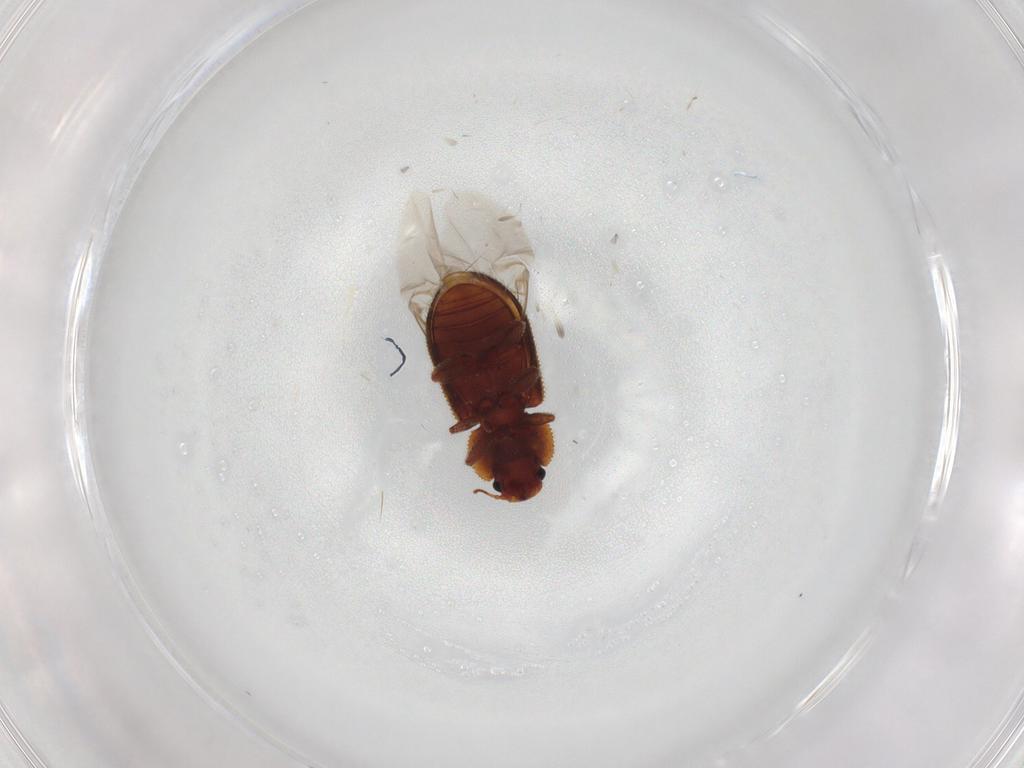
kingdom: Animalia
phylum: Arthropoda
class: Insecta
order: Coleoptera
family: Zopheridae
